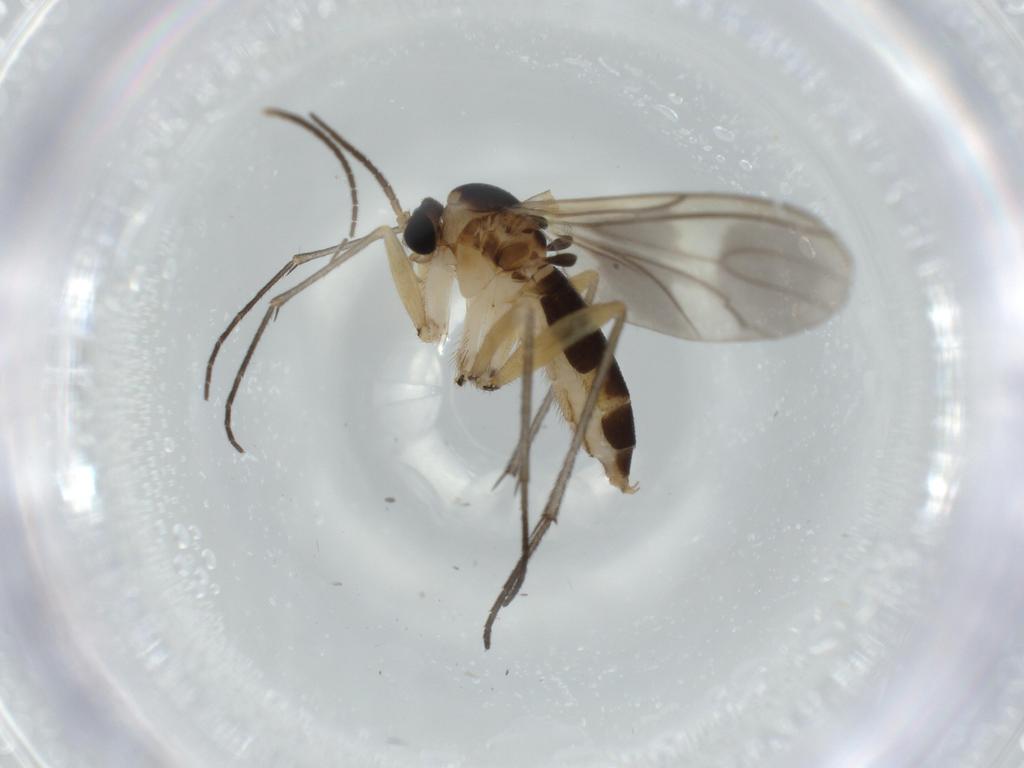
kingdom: Animalia
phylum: Arthropoda
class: Insecta
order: Diptera
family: Sciaridae
